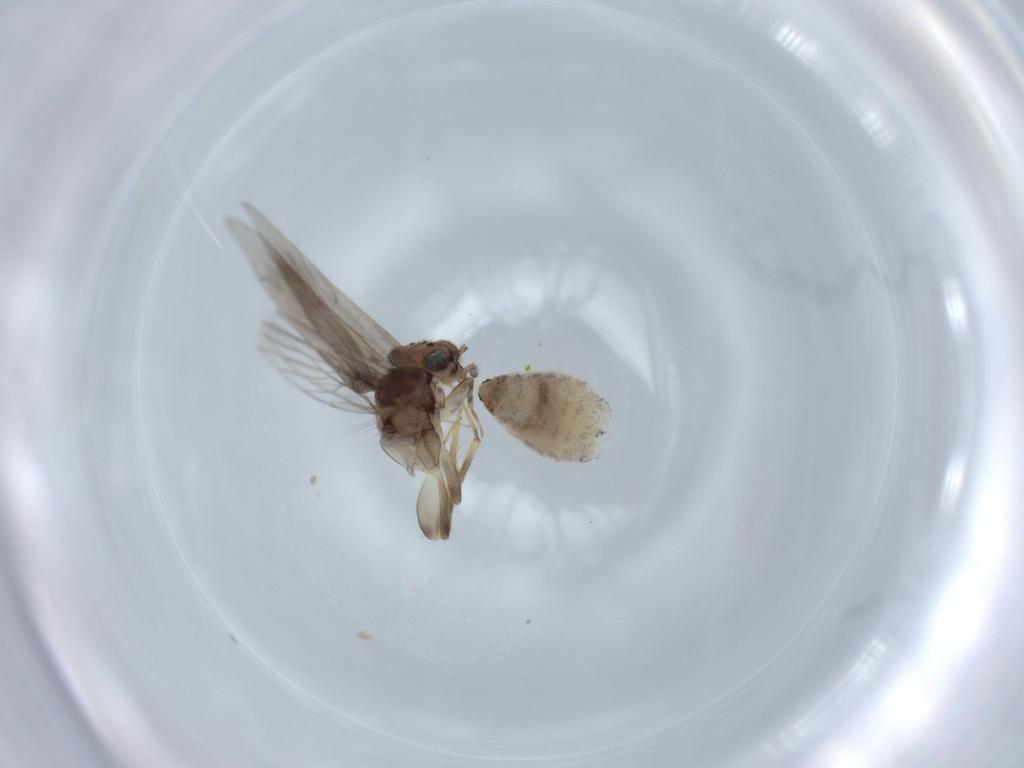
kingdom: Animalia
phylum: Arthropoda
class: Insecta
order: Psocodea
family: Lepidopsocidae
